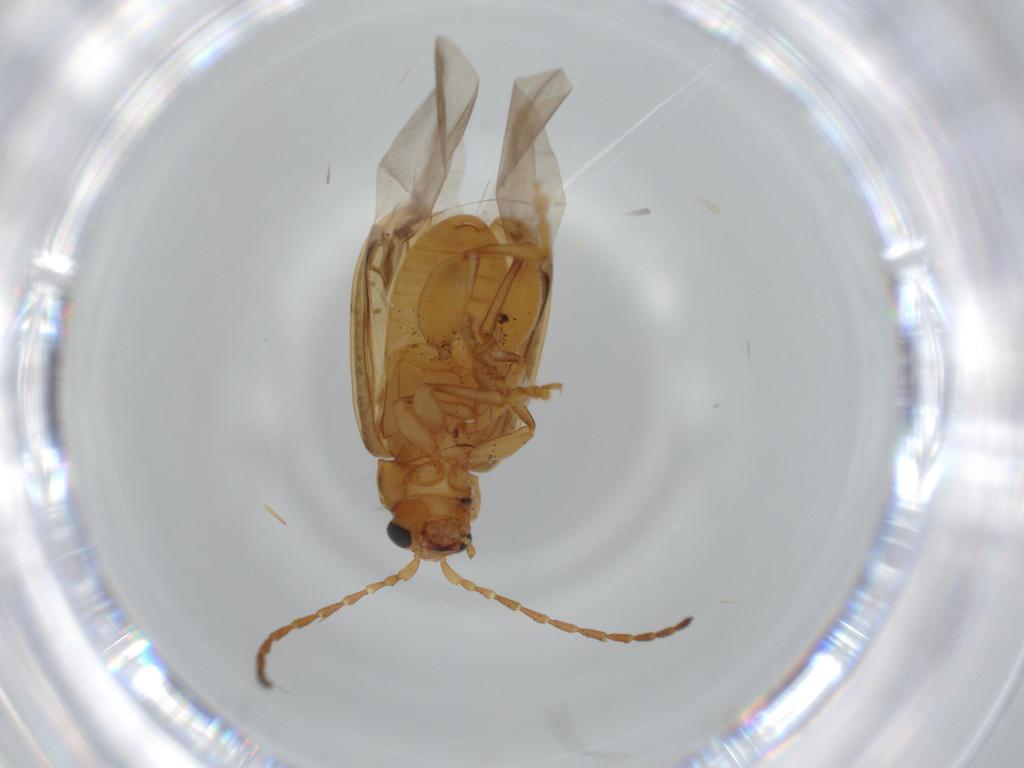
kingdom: Animalia
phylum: Arthropoda
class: Insecta
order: Coleoptera
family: Chrysomelidae
